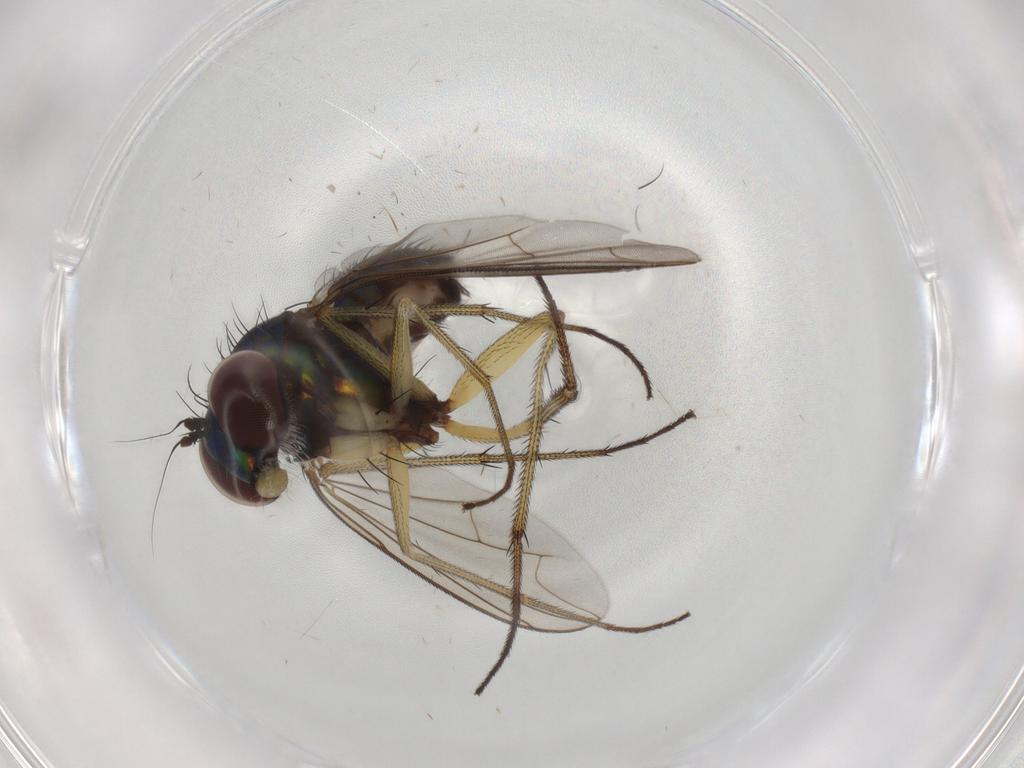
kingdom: Animalia
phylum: Arthropoda
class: Insecta
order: Diptera
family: Dolichopodidae
